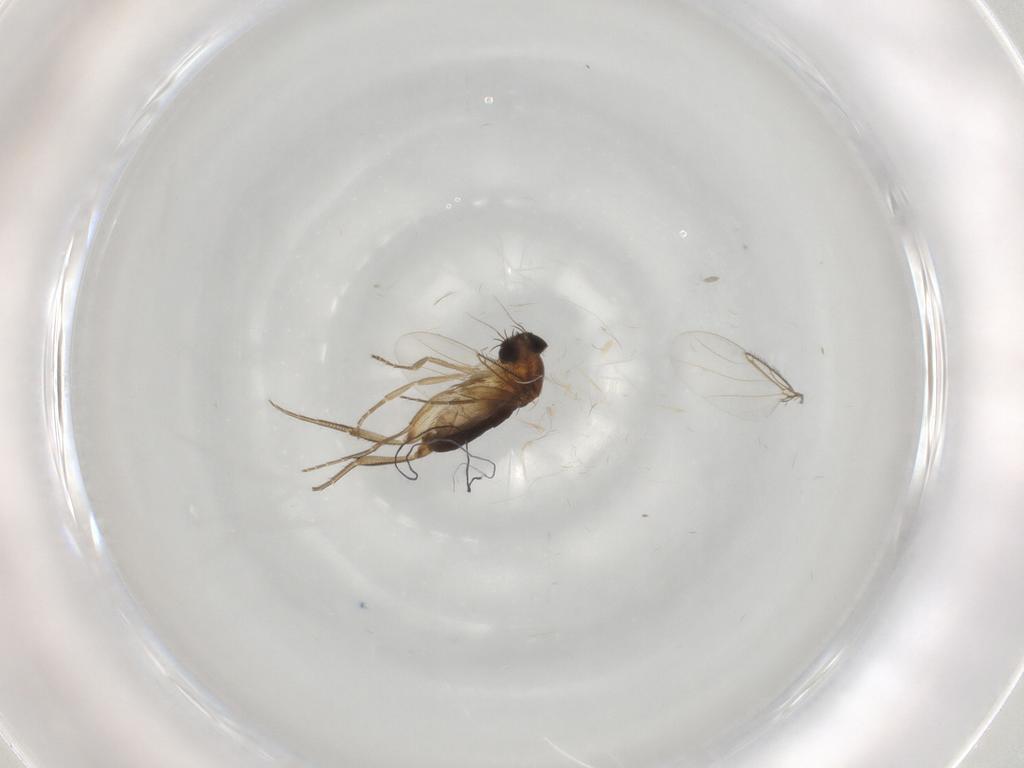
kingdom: Animalia
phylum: Arthropoda
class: Insecta
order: Diptera
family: Phoridae
